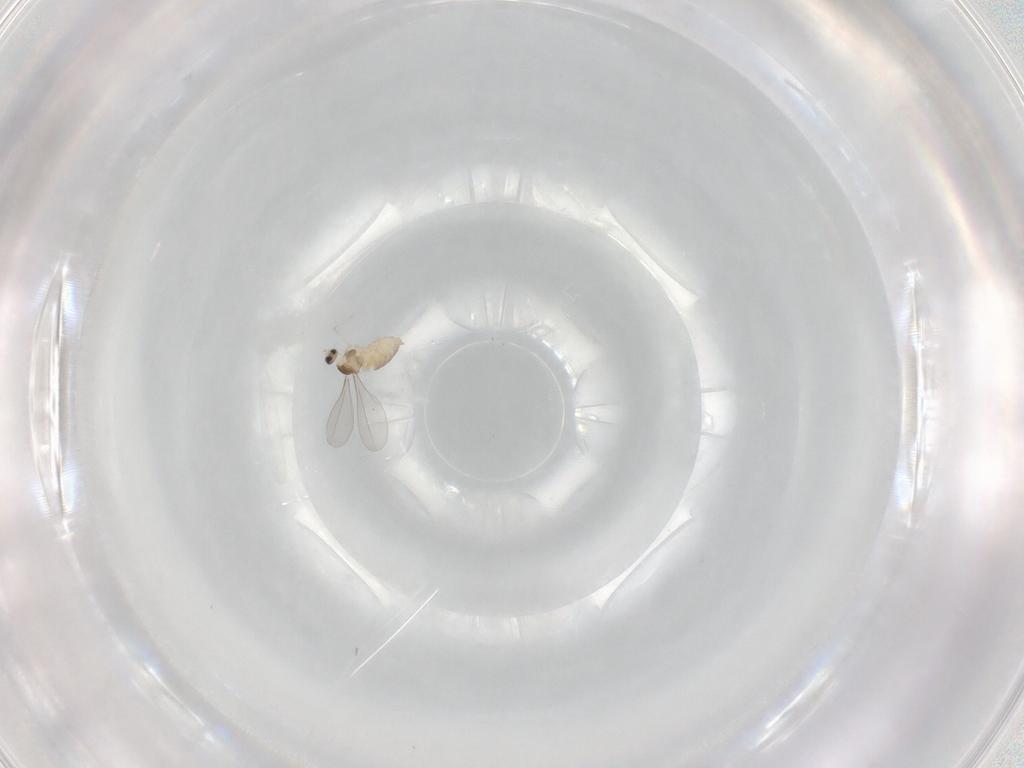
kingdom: Animalia
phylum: Arthropoda
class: Insecta
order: Diptera
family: Cecidomyiidae
